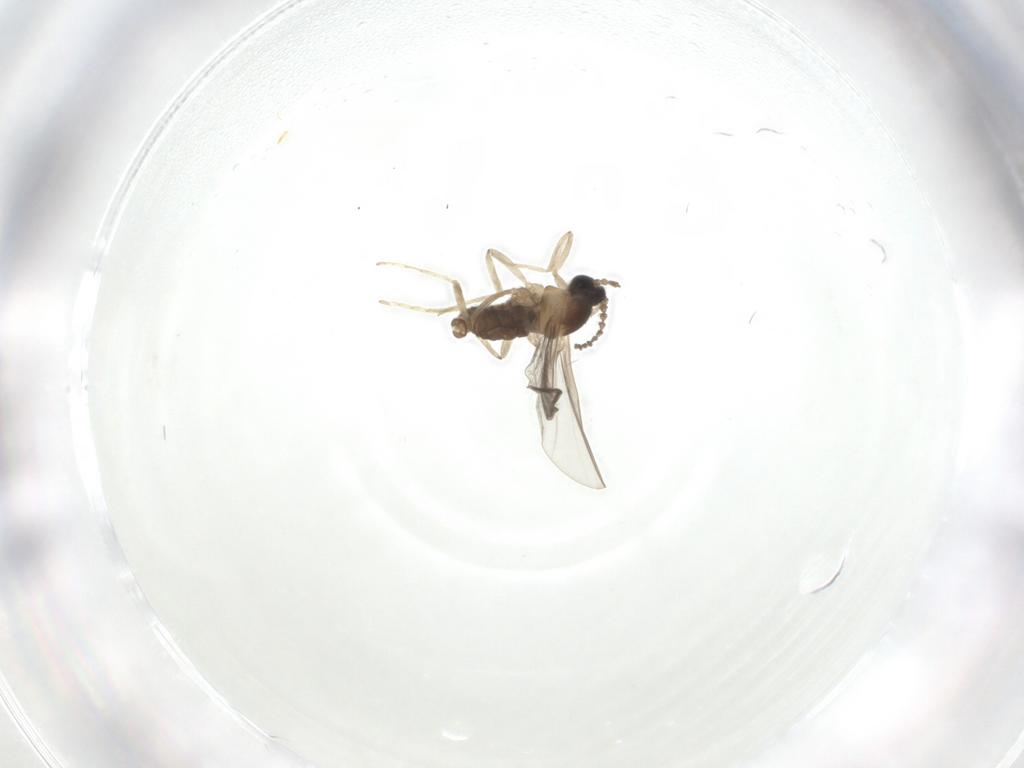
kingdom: Animalia
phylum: Arthropoda
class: Insecta
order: Diptera
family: Cecidomyiidae
